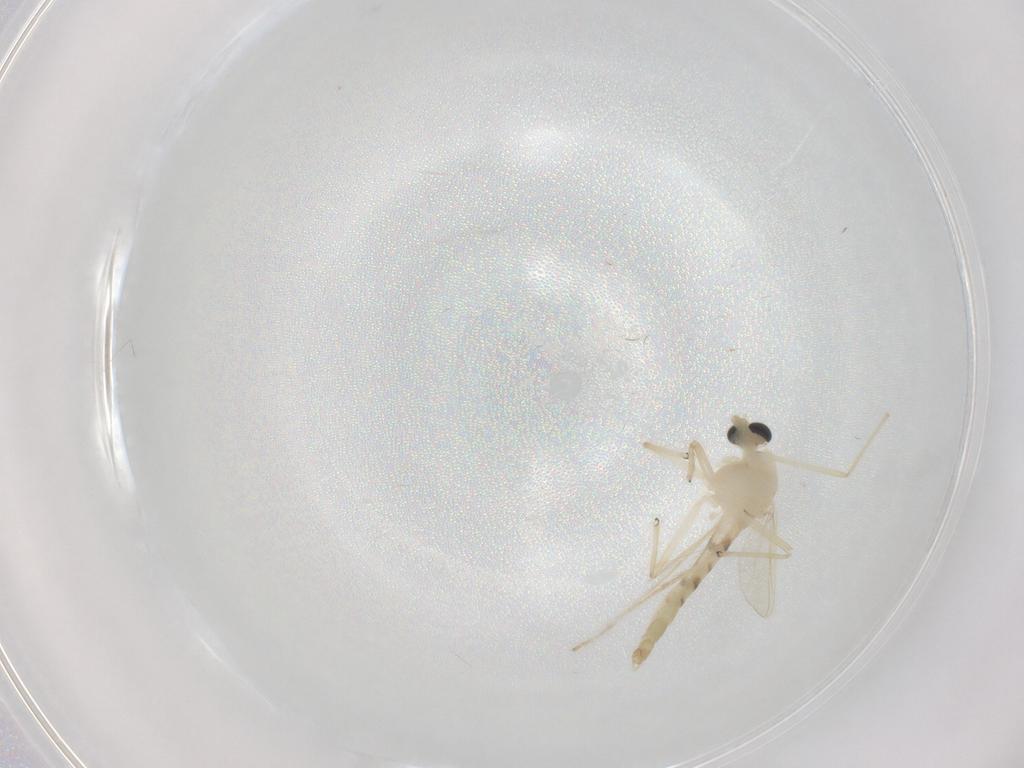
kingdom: Animalia
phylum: Arthropoda
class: Insecta
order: Diptera
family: Chironomidae
